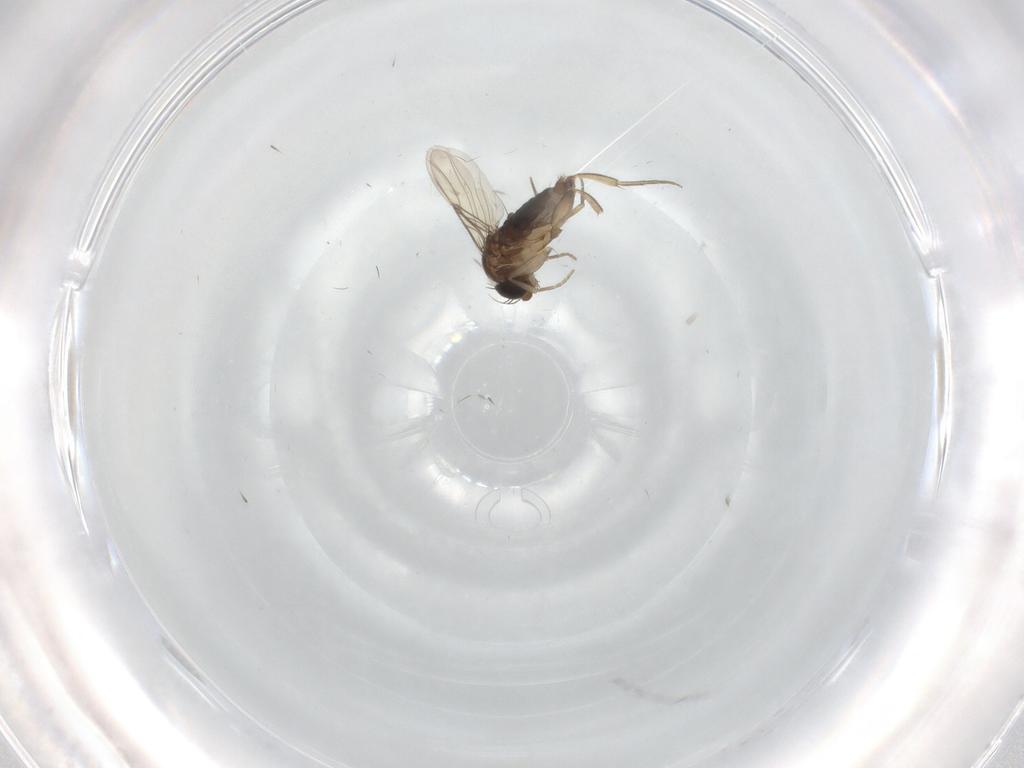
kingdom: Animalia
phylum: Arthropoda
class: Insecta
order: Diptera
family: Phoridae
